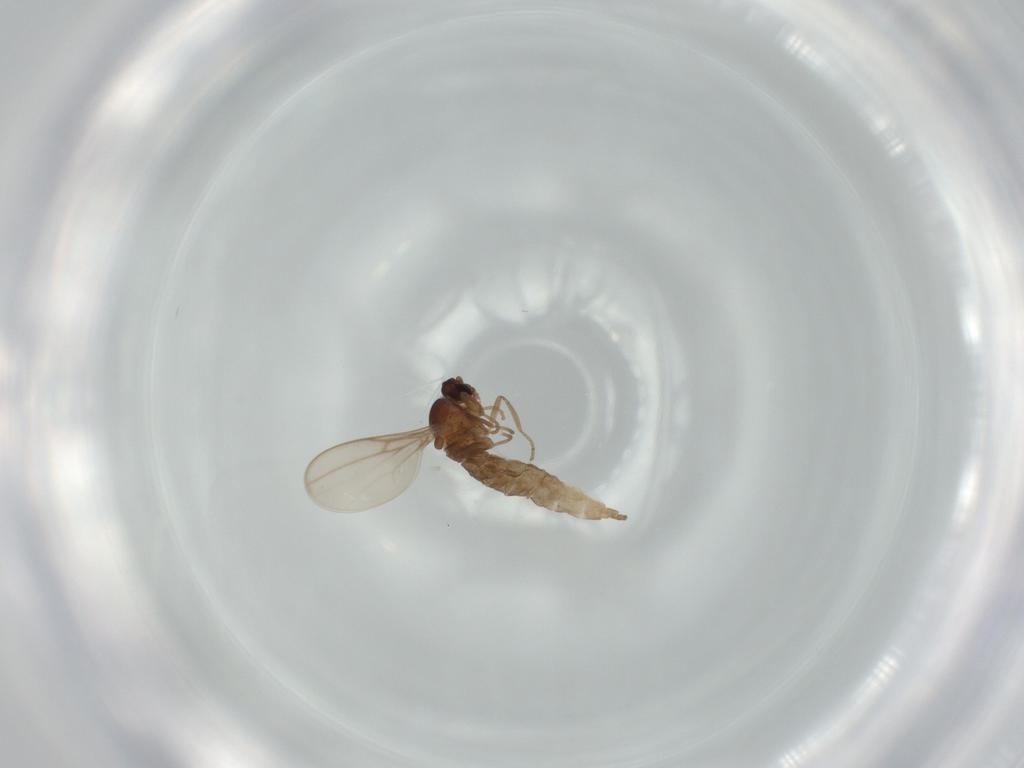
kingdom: Animalia
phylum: Arthropoda
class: Insecta
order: Diptera
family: Cecidomyiidae
